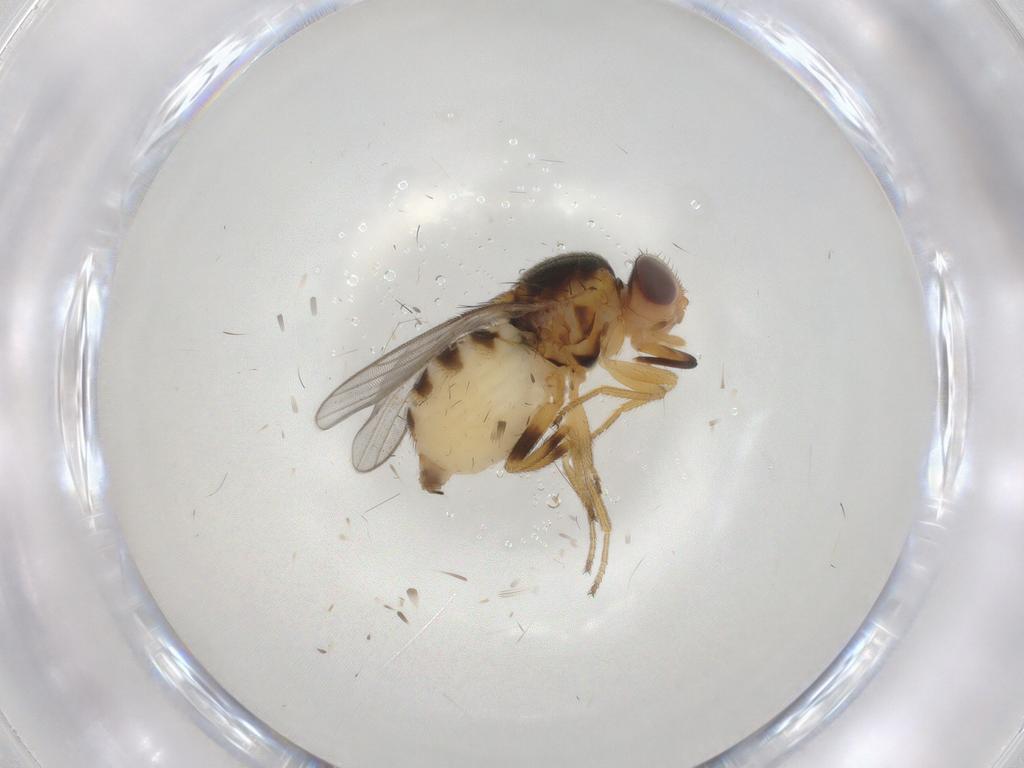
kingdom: Animalia
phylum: Arthropoda
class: Insecta
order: Diptera
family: Chloropidae
